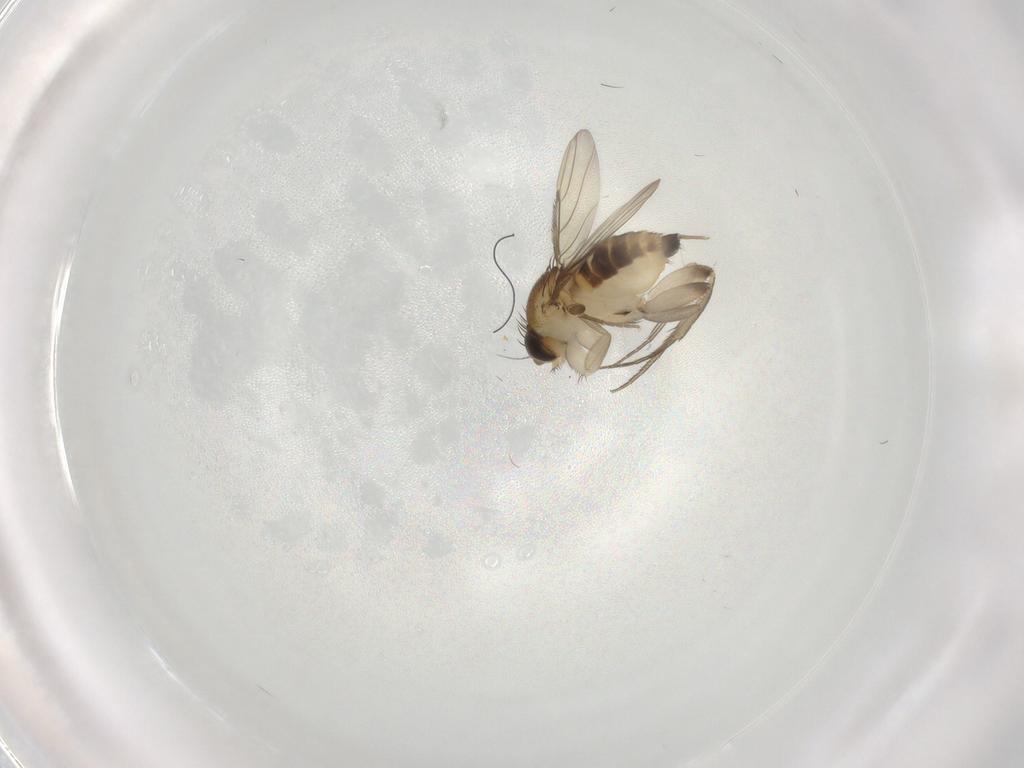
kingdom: Animalia
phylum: Arthropoda
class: Insecta
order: Diptera
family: Phoridae
